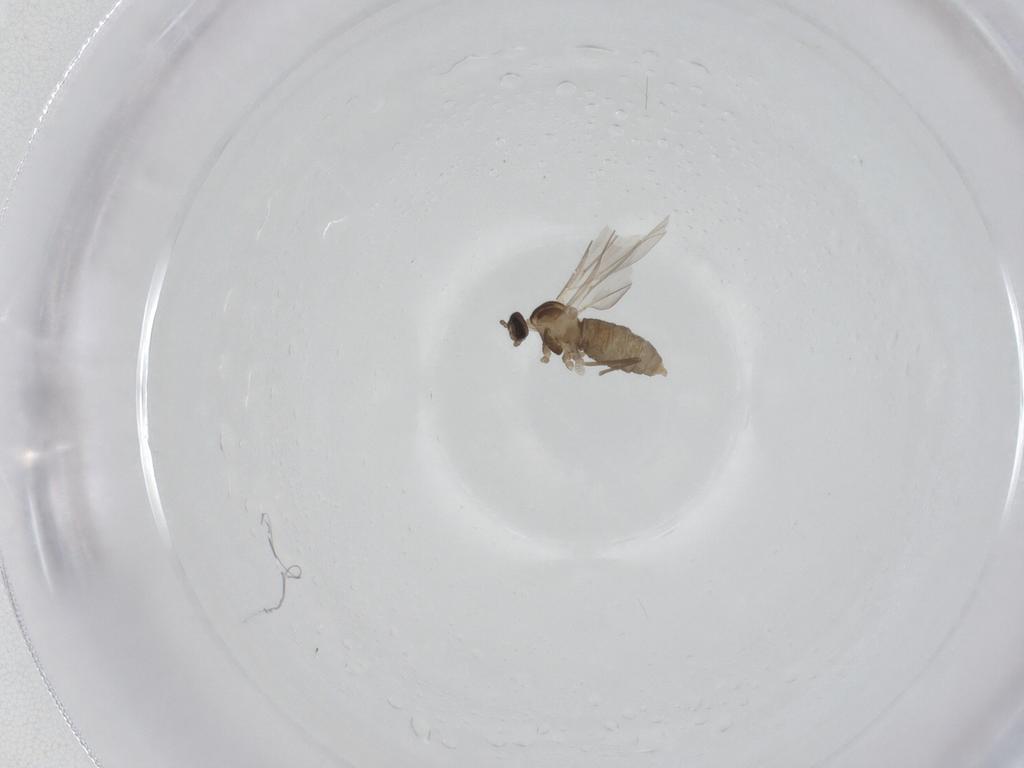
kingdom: Animalia
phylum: Arthropoda
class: Insecta
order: Diptera
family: Cecidomyiidae
